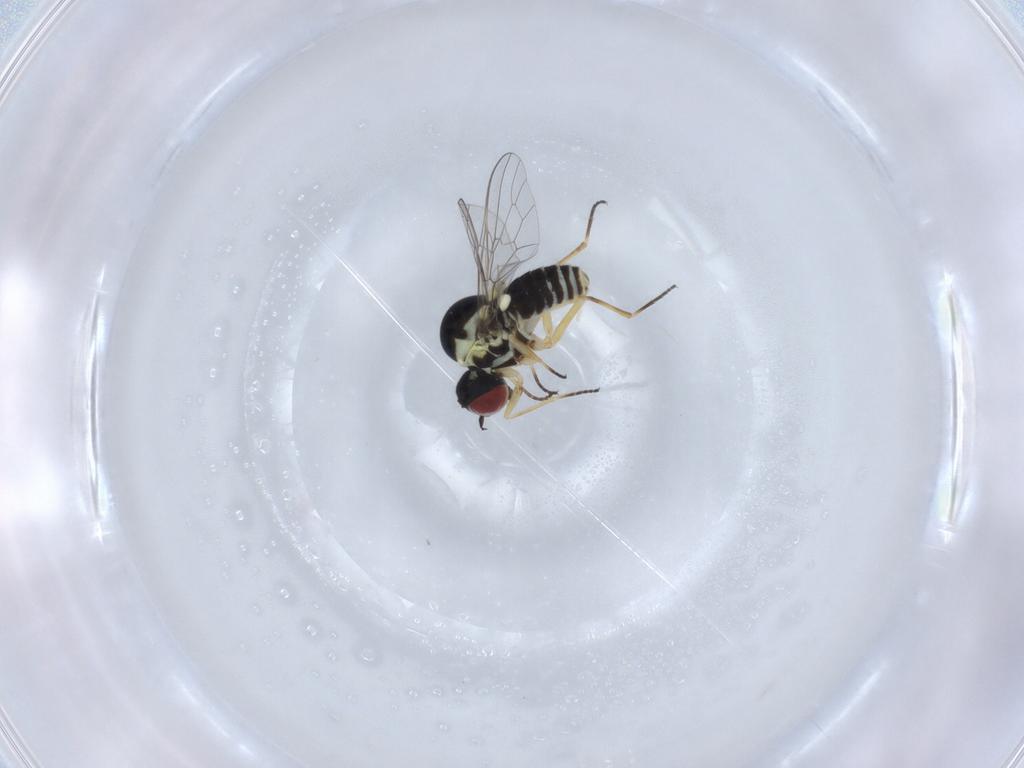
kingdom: Animalia
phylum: Arthropoda
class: Insecta
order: Diptera
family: Bombyliidae
